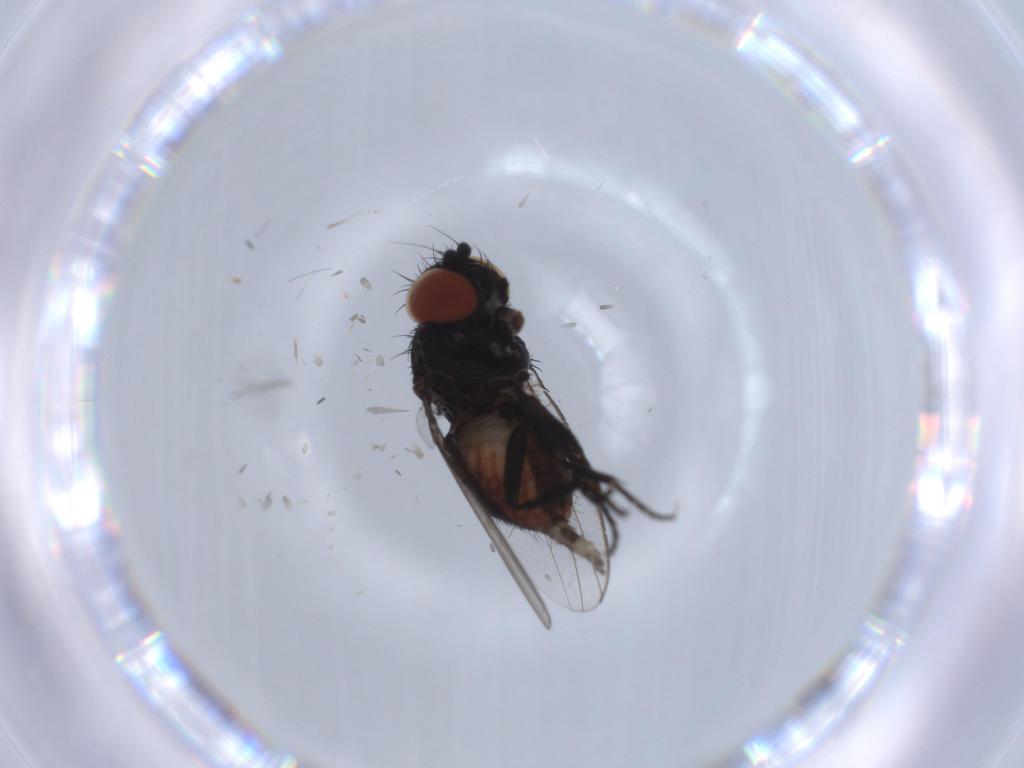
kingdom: Animalia
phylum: Arthropoda
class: Insecta
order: Diptera
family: Milichiidae
